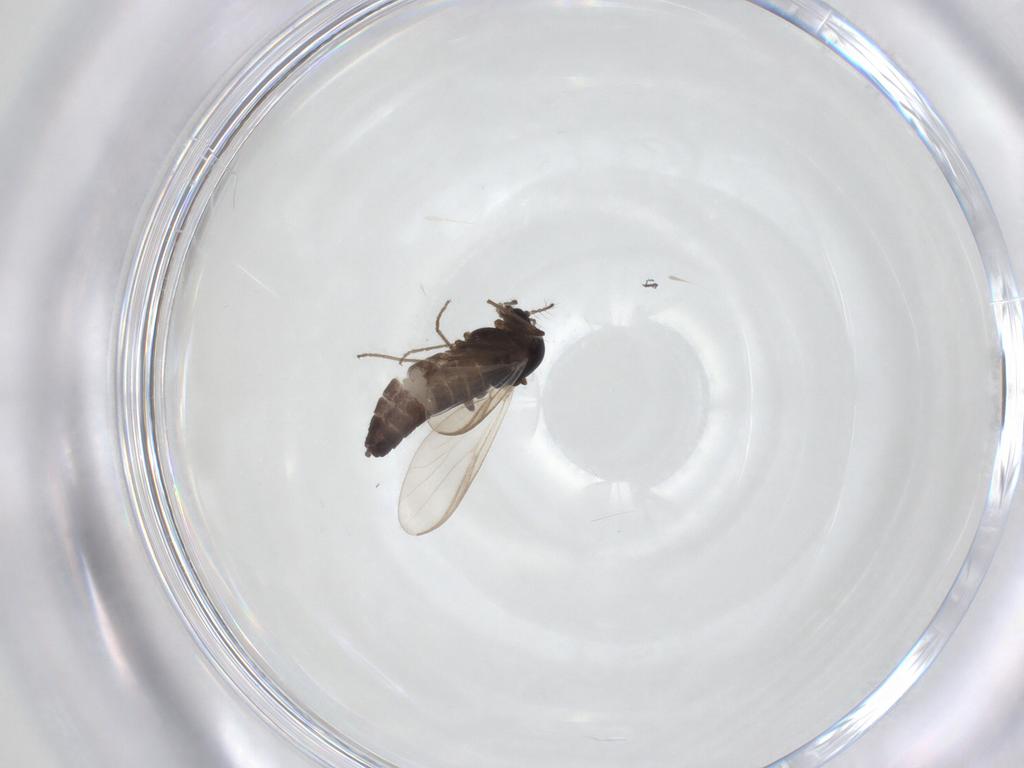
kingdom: Animalia
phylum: Arthropoda
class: Insecta
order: Diptera
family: Chironomidae
